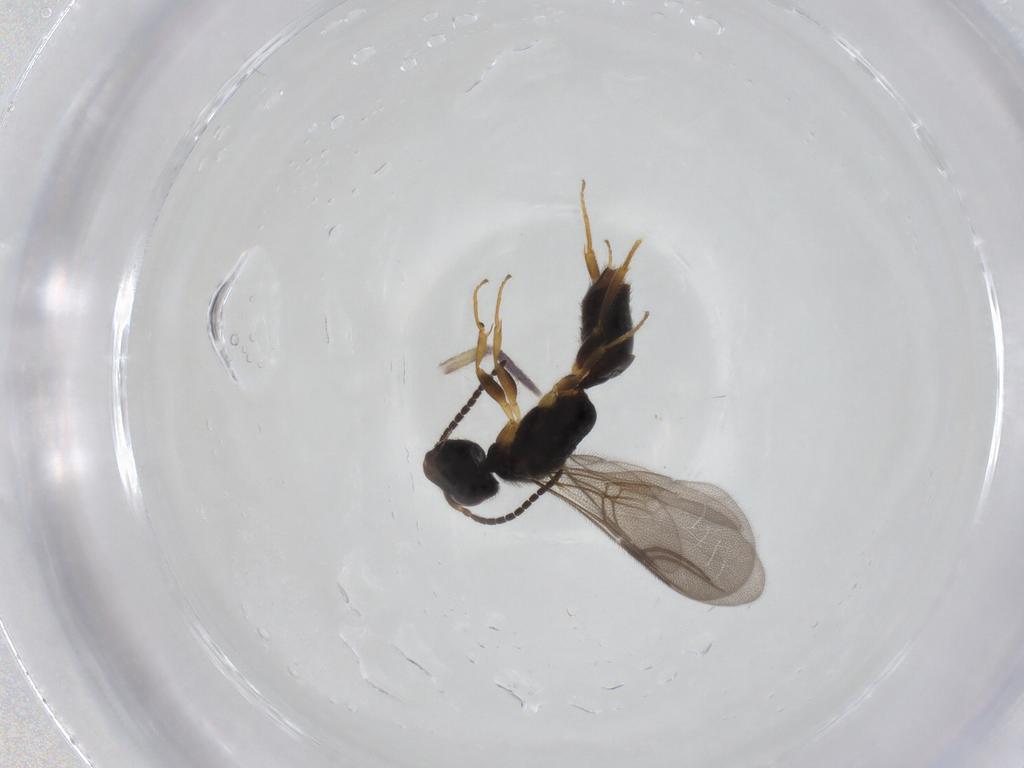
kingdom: Animalia
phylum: Arthropoda
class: Insecta
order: Hymenoptera
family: Bethylidae
